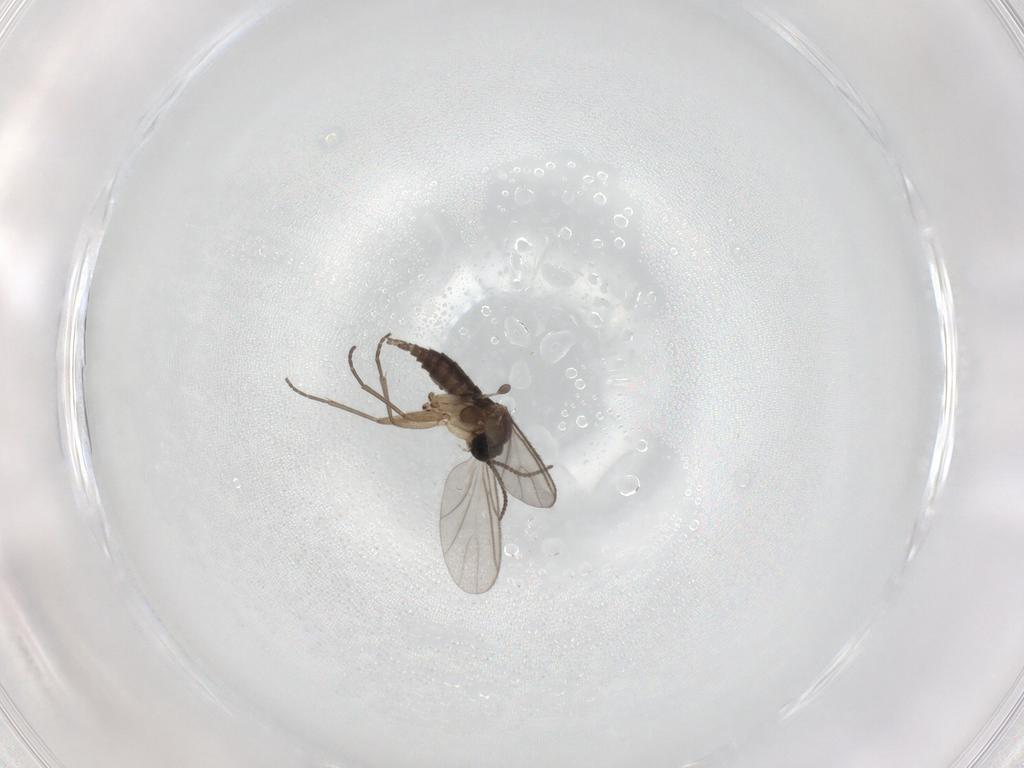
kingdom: Animalia
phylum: Arthropoda
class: Insecta
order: Diptera
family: Sciaridae
